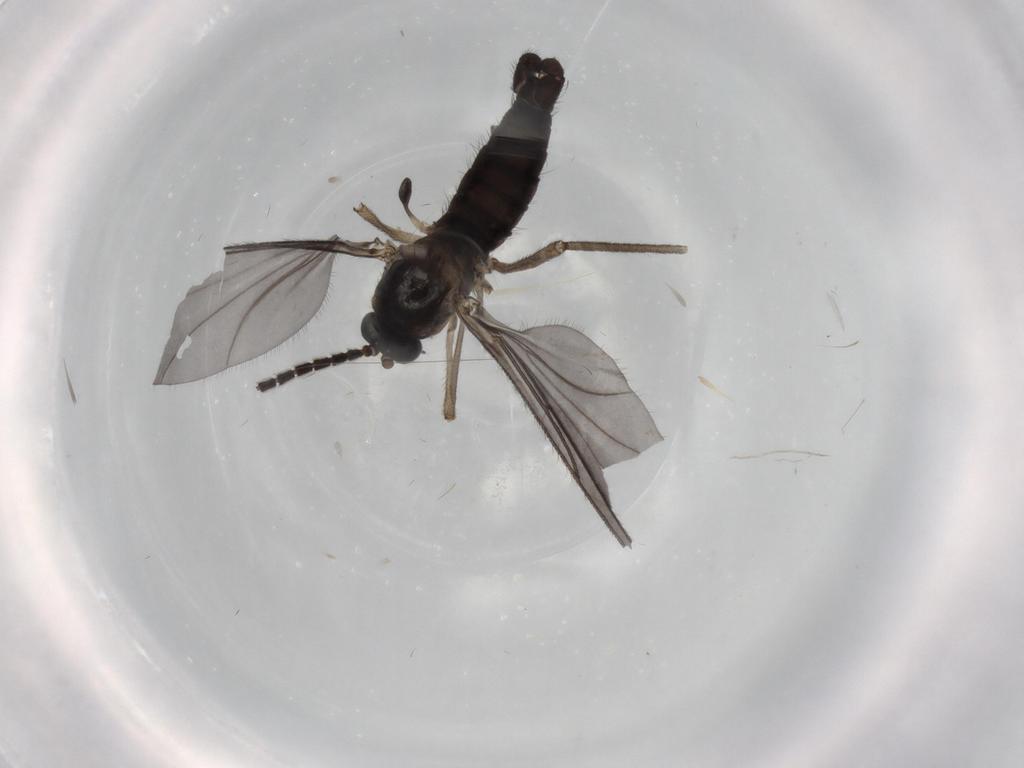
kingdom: Animalia
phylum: Arthropoda
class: Insecta
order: Diptera
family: Sciaridae
